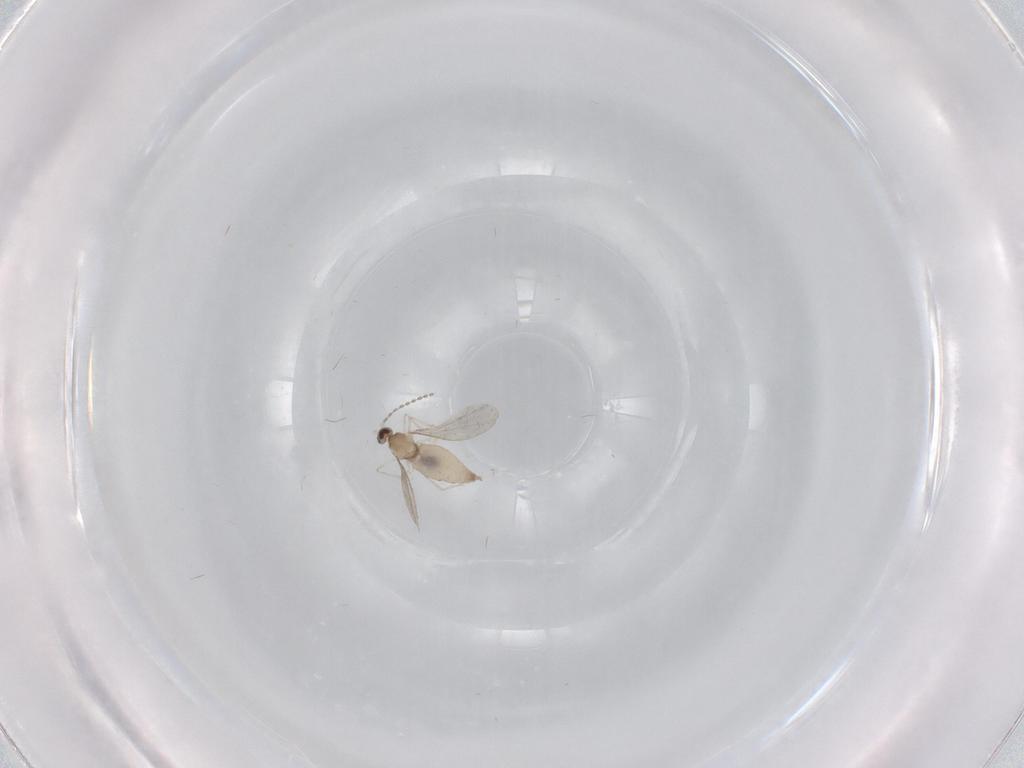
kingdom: Animalia
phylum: Arthropoda
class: Insecta
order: Diptera
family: Cecidomyiidae
